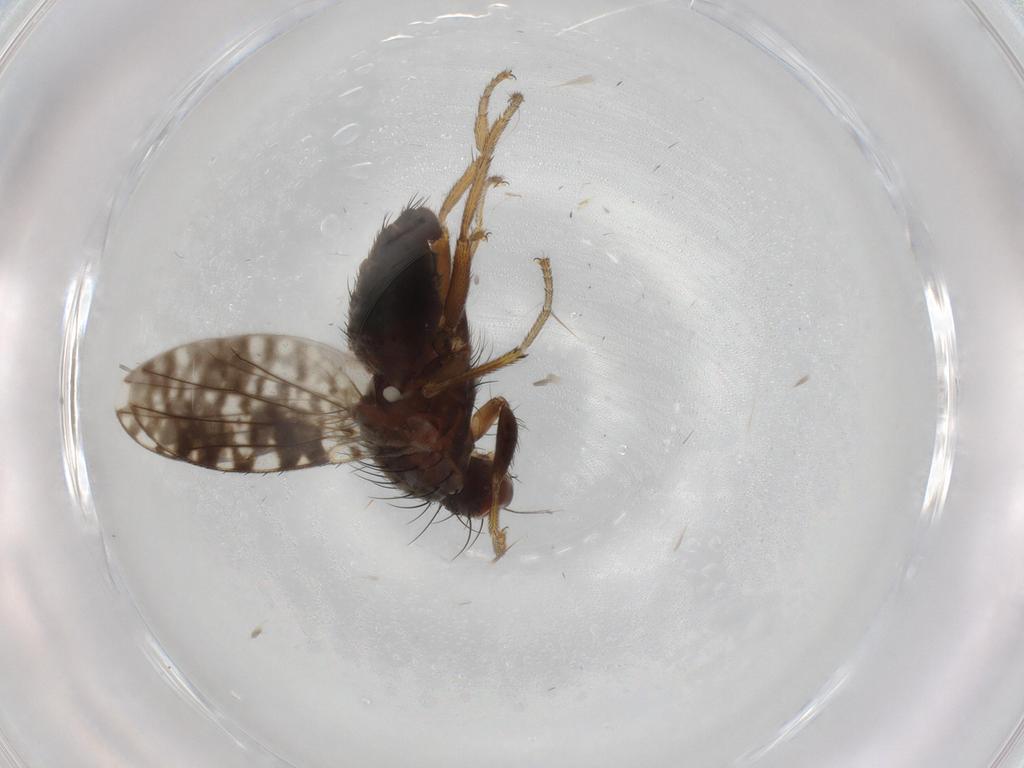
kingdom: Animalia
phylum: Arthropoda
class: Insecta
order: Diptera
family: Tephritidae
